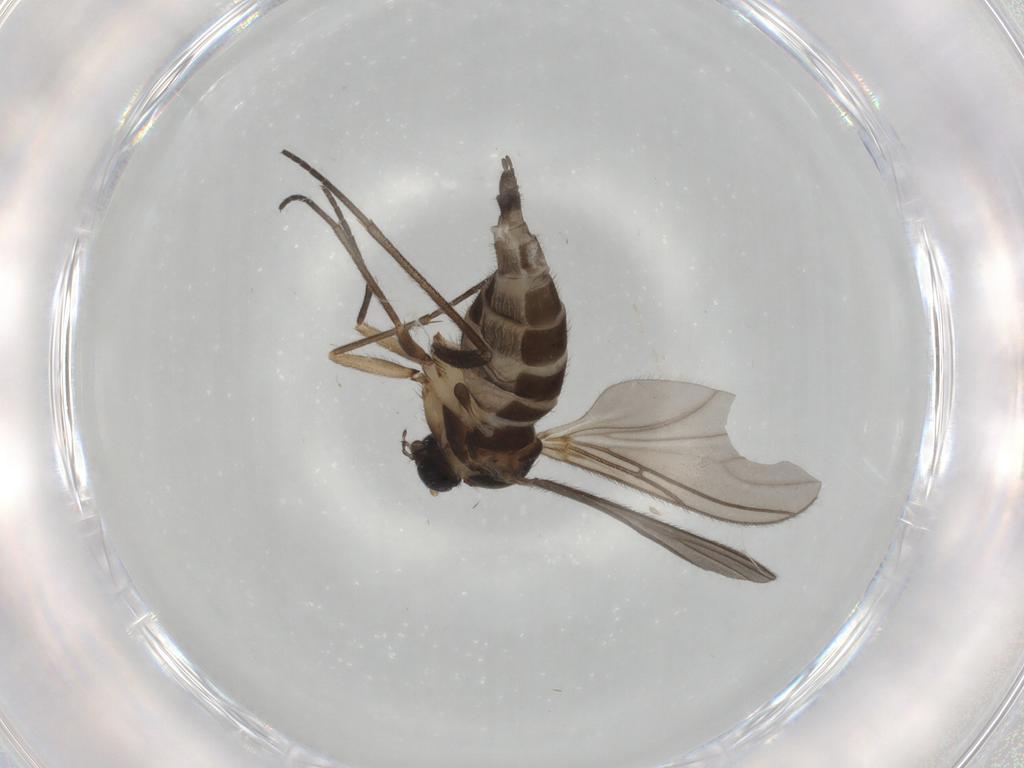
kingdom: Animalia
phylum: Arthropoda
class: Insecta
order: Diptera
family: Sciaridae
